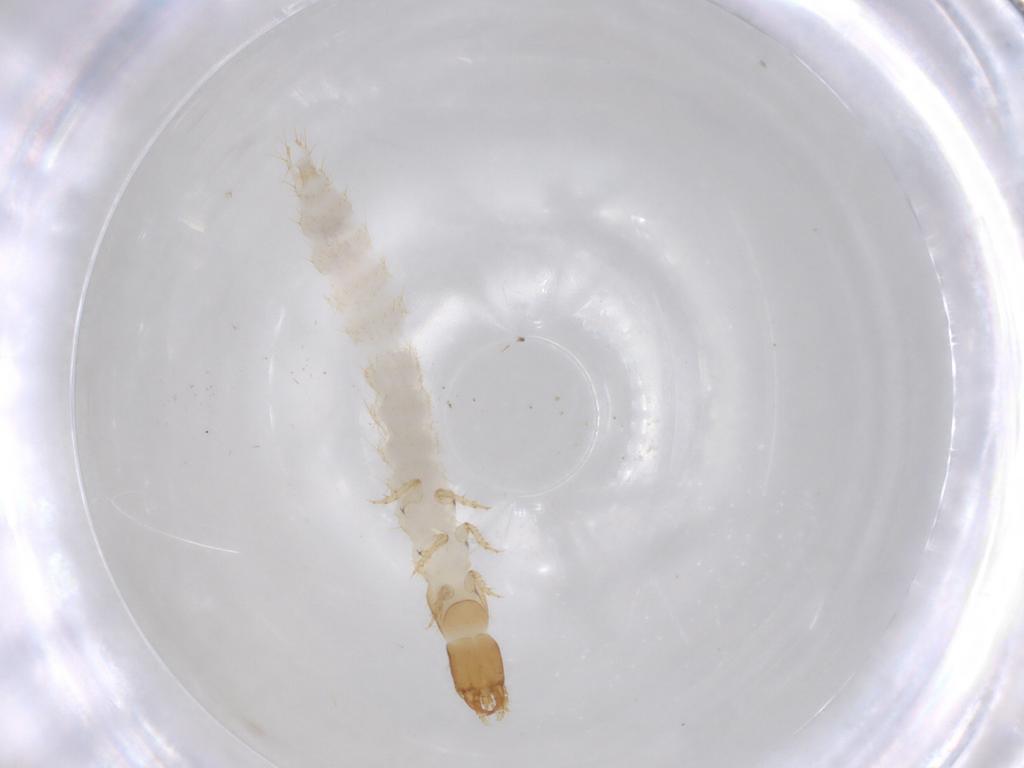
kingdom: Animalia
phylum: Arthropoda
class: Insecta
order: Coleoptera
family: Carabidae
